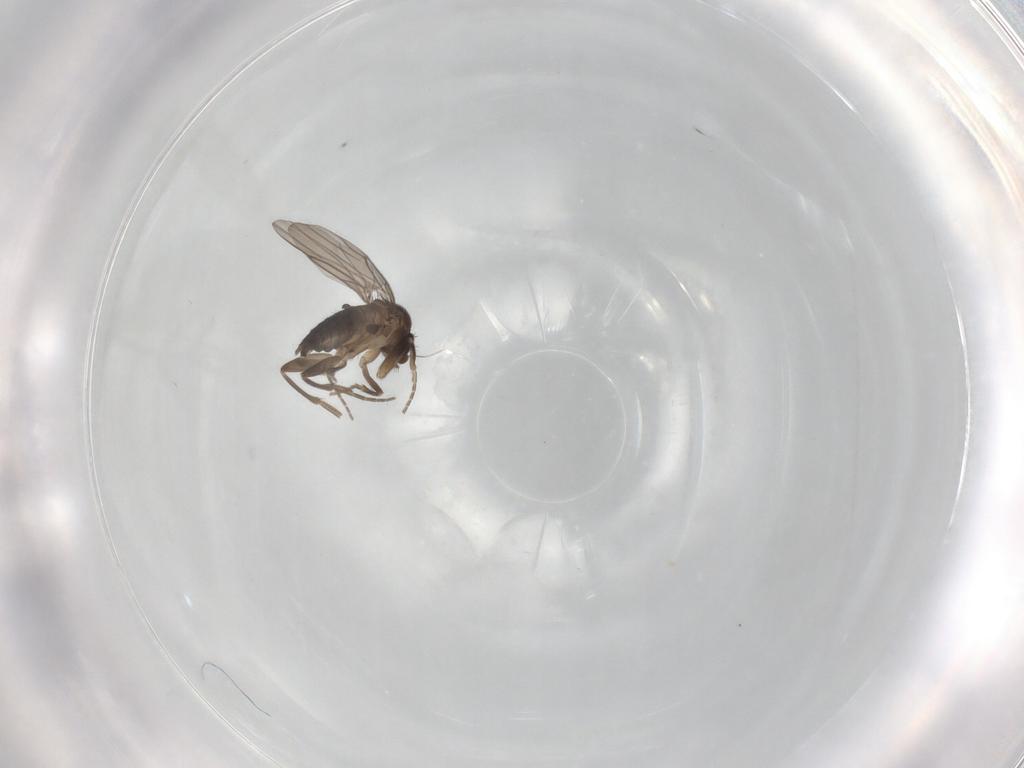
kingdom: Animalia
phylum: Arthropoda
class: Insecta
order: Diptera
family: Phoridae
